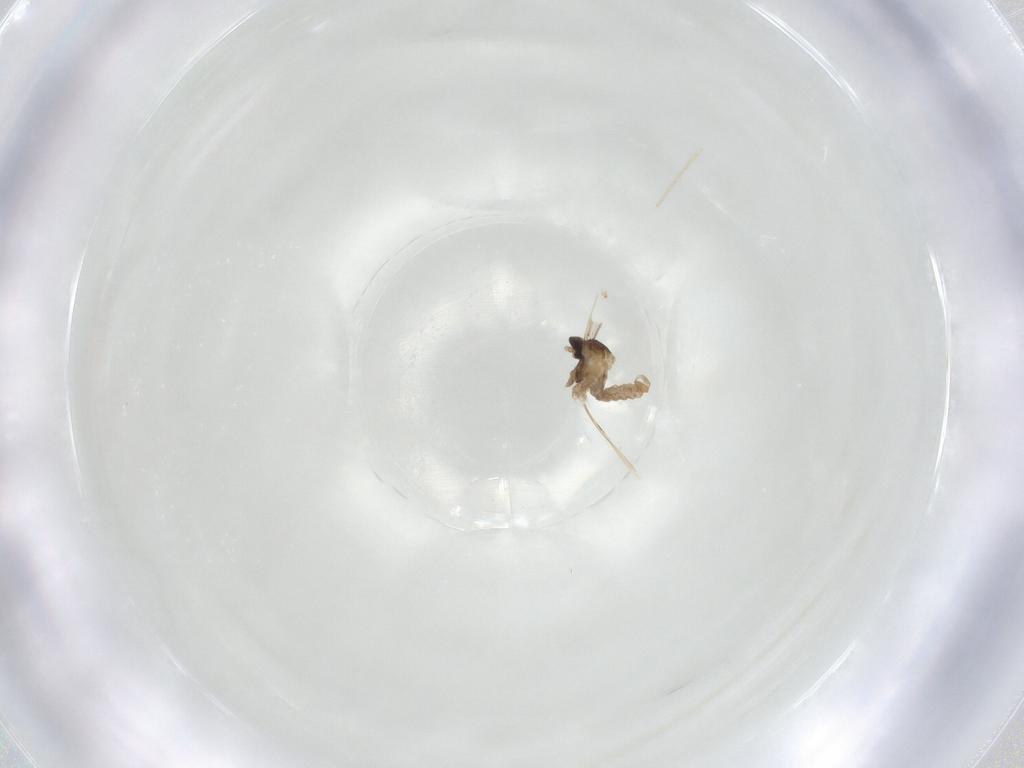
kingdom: Animalia
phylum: Arthropoda
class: Insecta
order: Diptera
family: Cecidomyiidae
